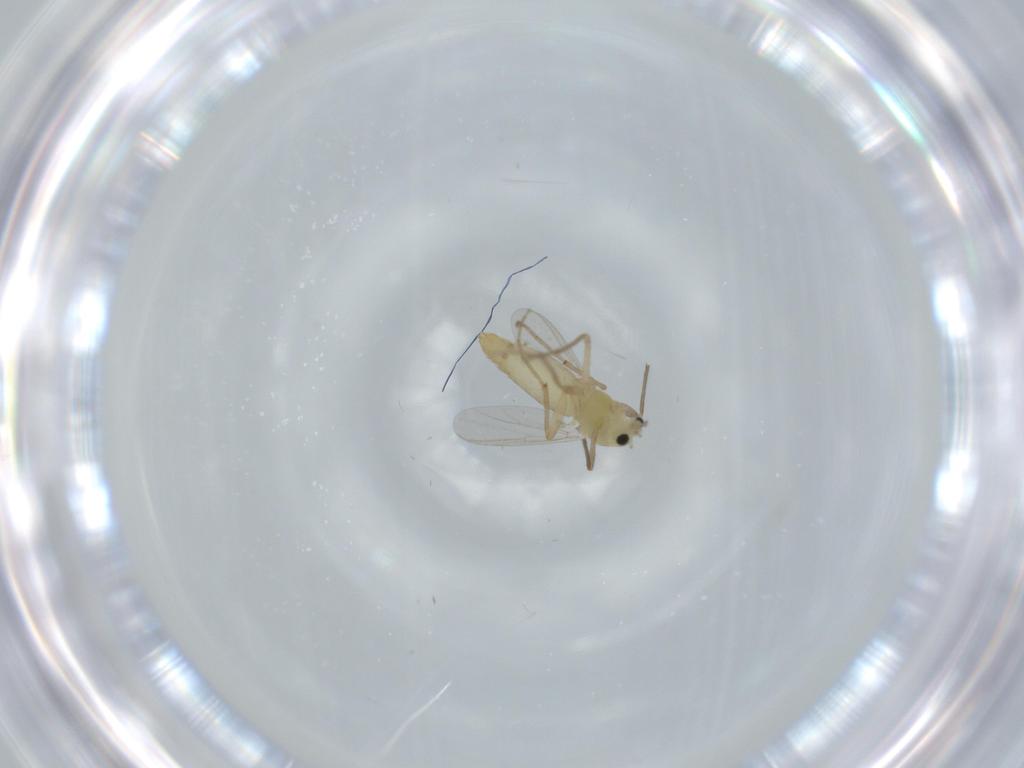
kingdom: Animalia
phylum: Arthropoda
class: Insecta
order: Diptera
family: Chironomidae
